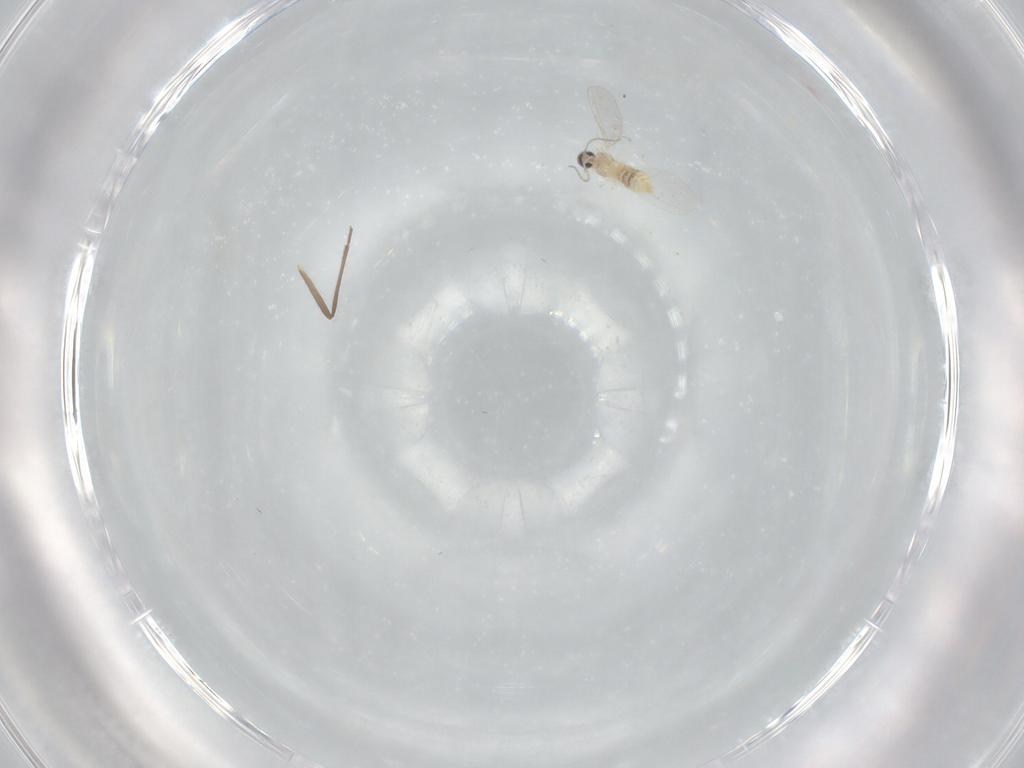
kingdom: Animalia
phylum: Arthropoda
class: Insecta
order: Diptera
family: Cecidomyiidae
